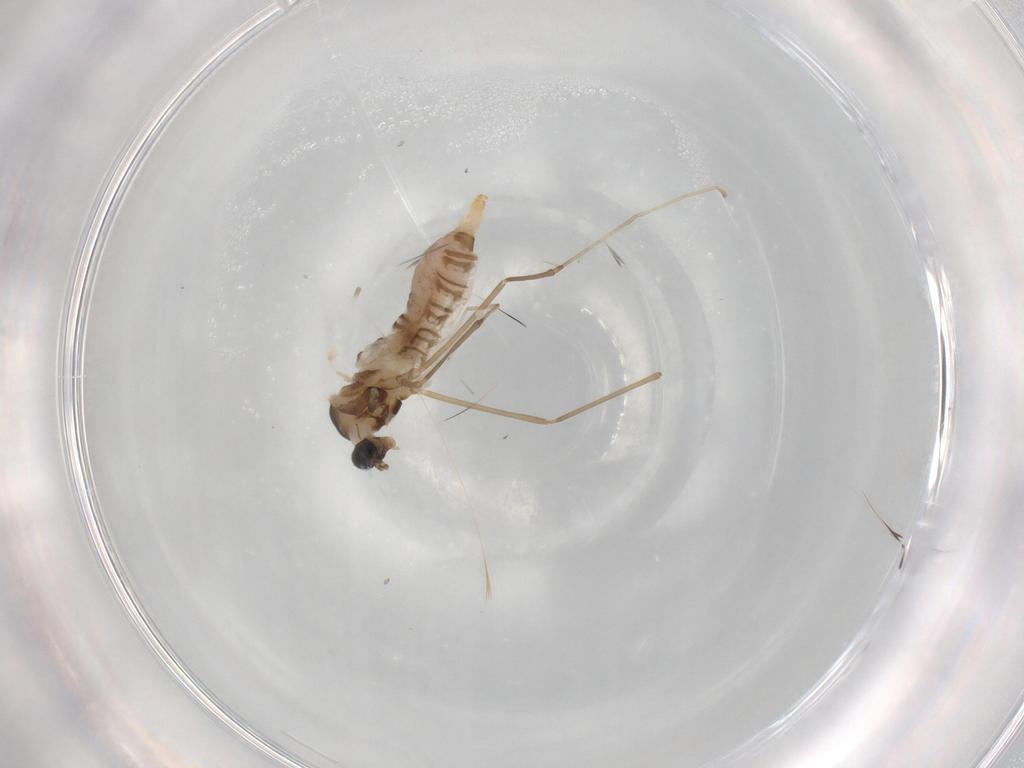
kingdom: Animalia
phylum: Arthropoda
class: Insecta
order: Diptera
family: Cecidomyiidae
